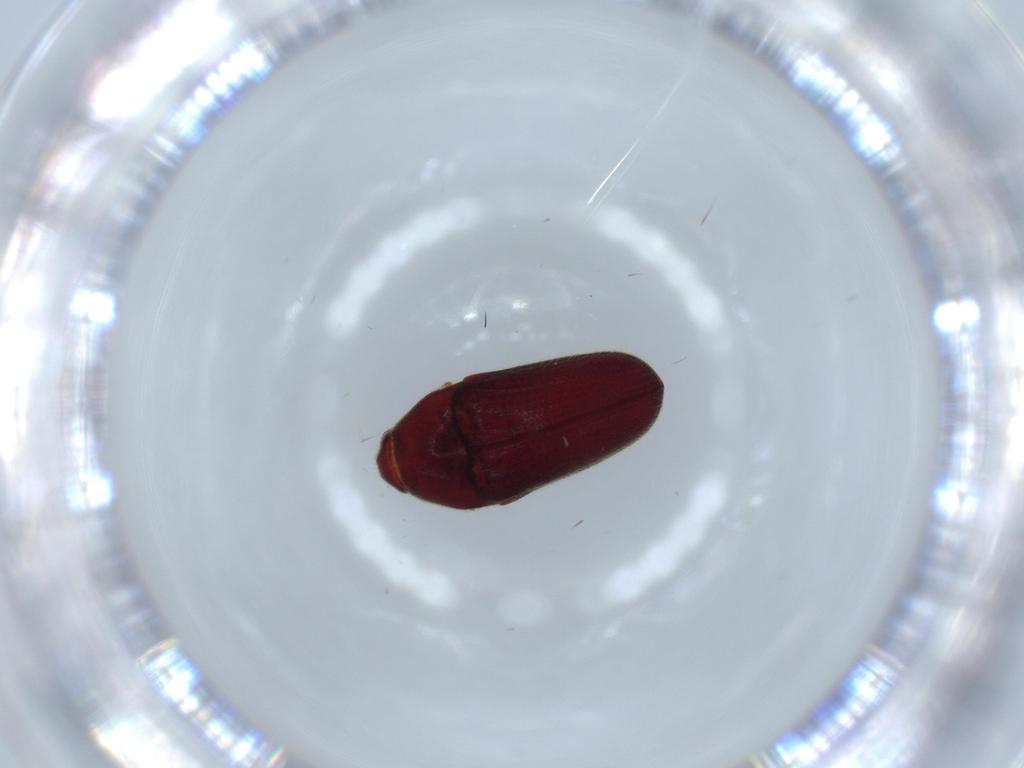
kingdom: Animalia
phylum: Arthropoda
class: Insecta
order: Coleoptera
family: Throscidae
